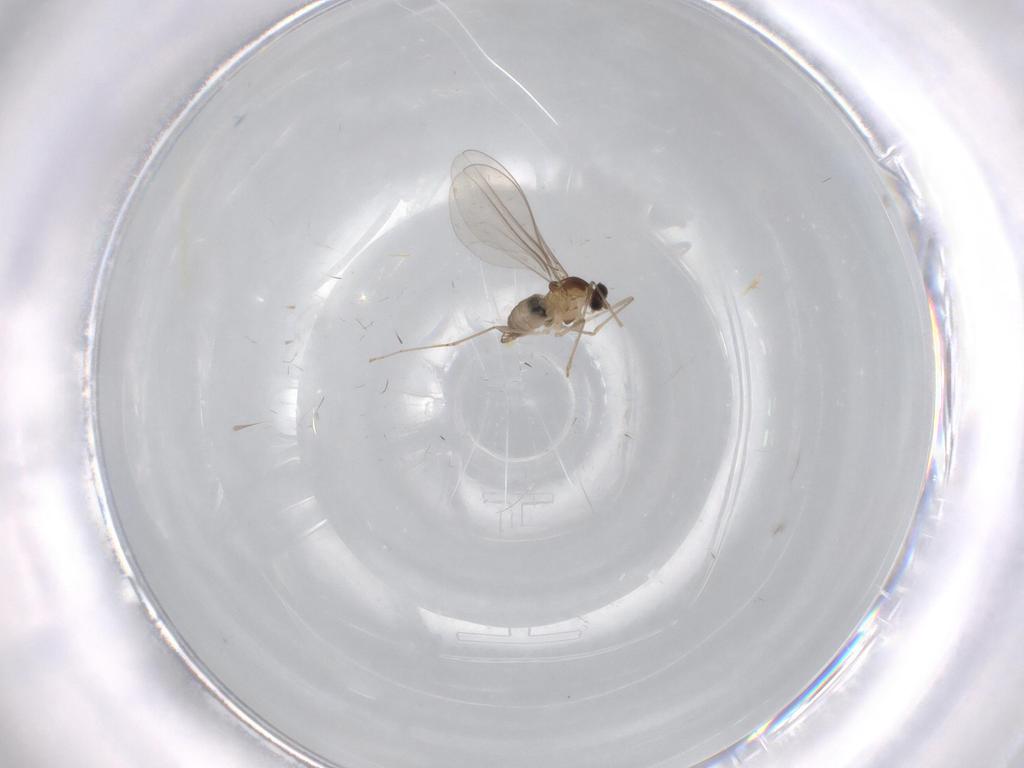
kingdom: Animalia
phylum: Arthropoda
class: Insecta
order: Diptera
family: Cecidomyiidae
